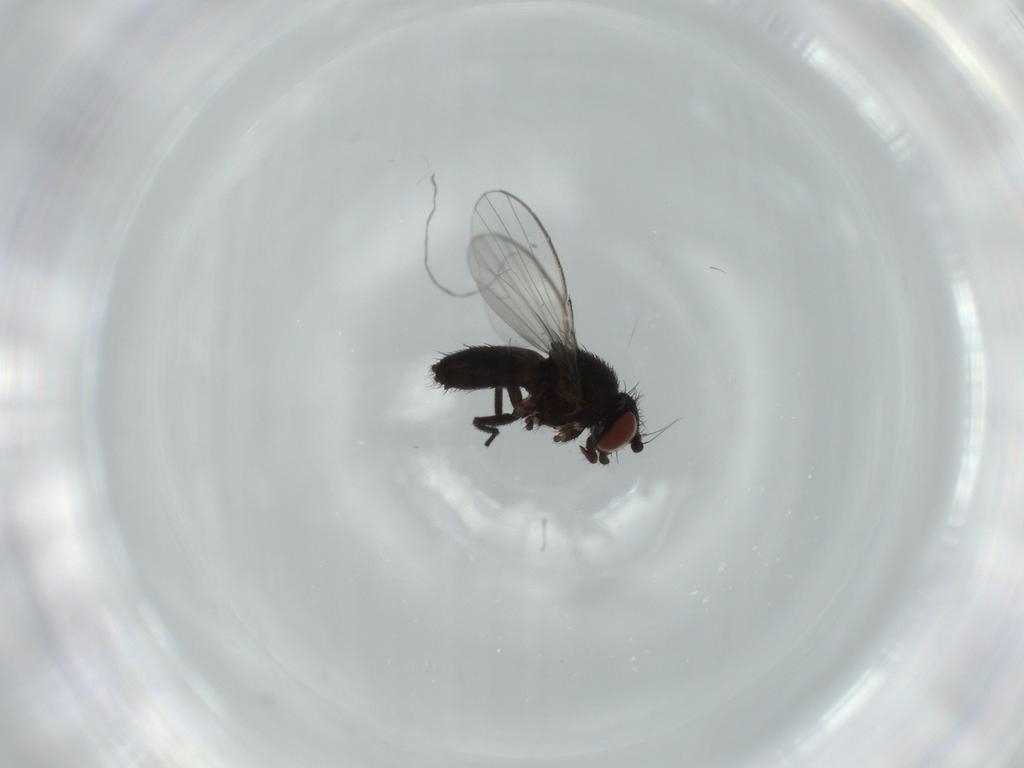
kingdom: Animalia
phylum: Arthropoda
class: Insecta
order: Diptera
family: Milichiidae
